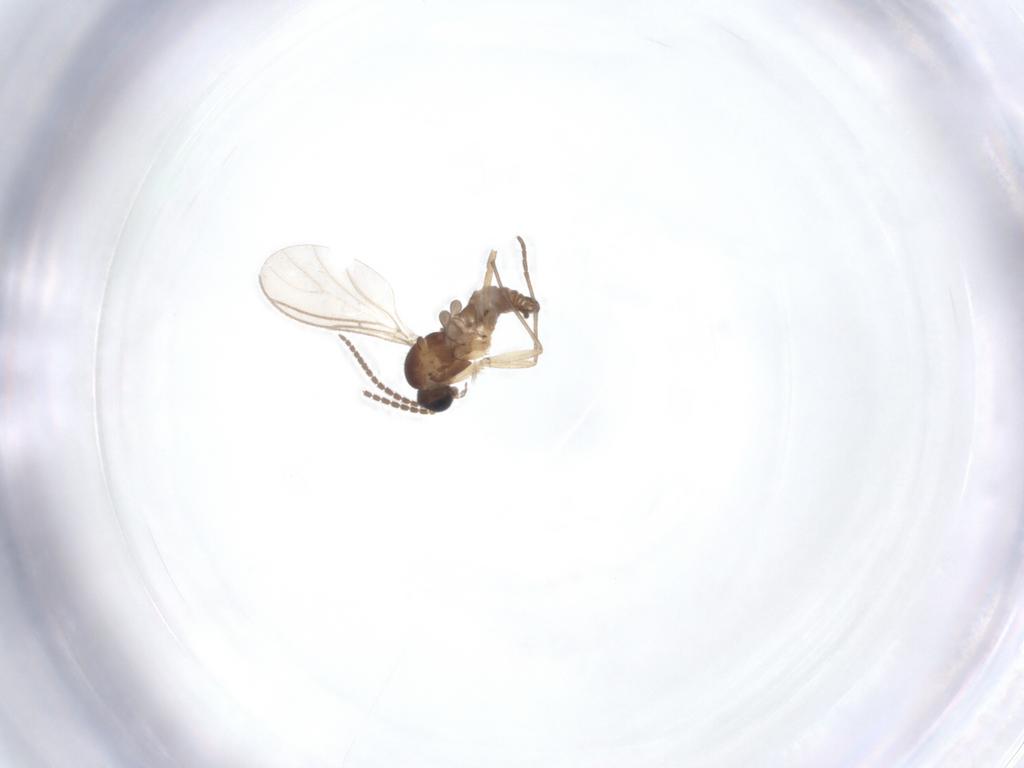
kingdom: Animalia
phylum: Arthropoda
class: Insecta
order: Diptera
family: Sciaridae
